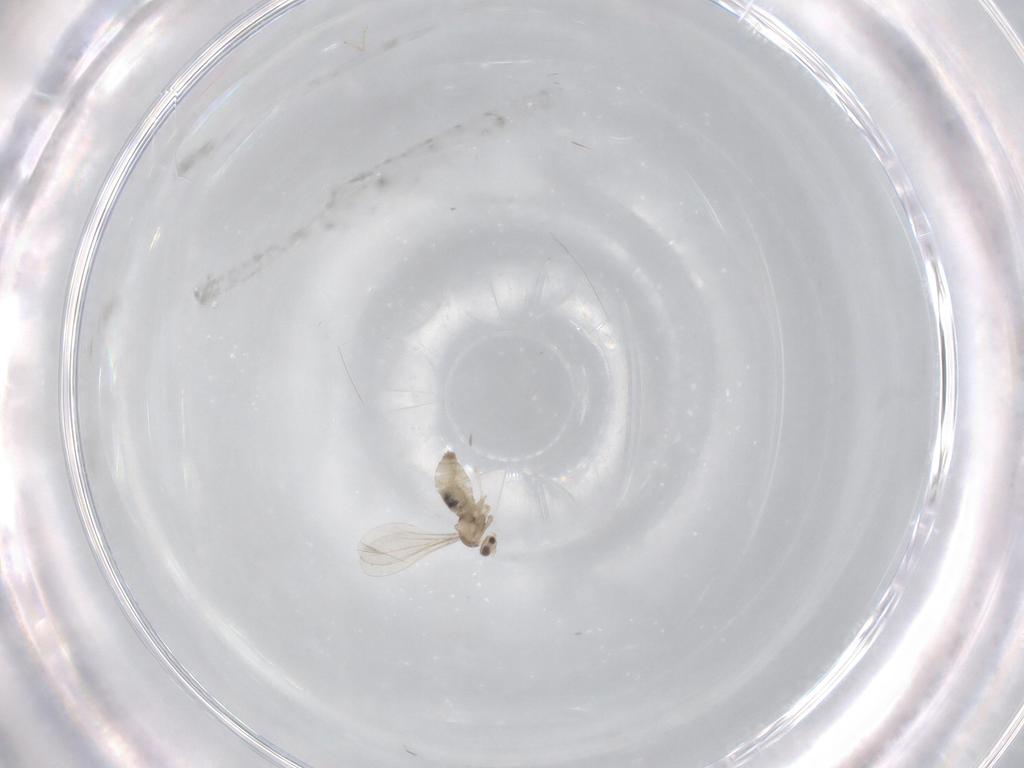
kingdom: Animalia
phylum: Arthropoda
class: Insecta
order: Diptera
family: Cecidomyiidae
